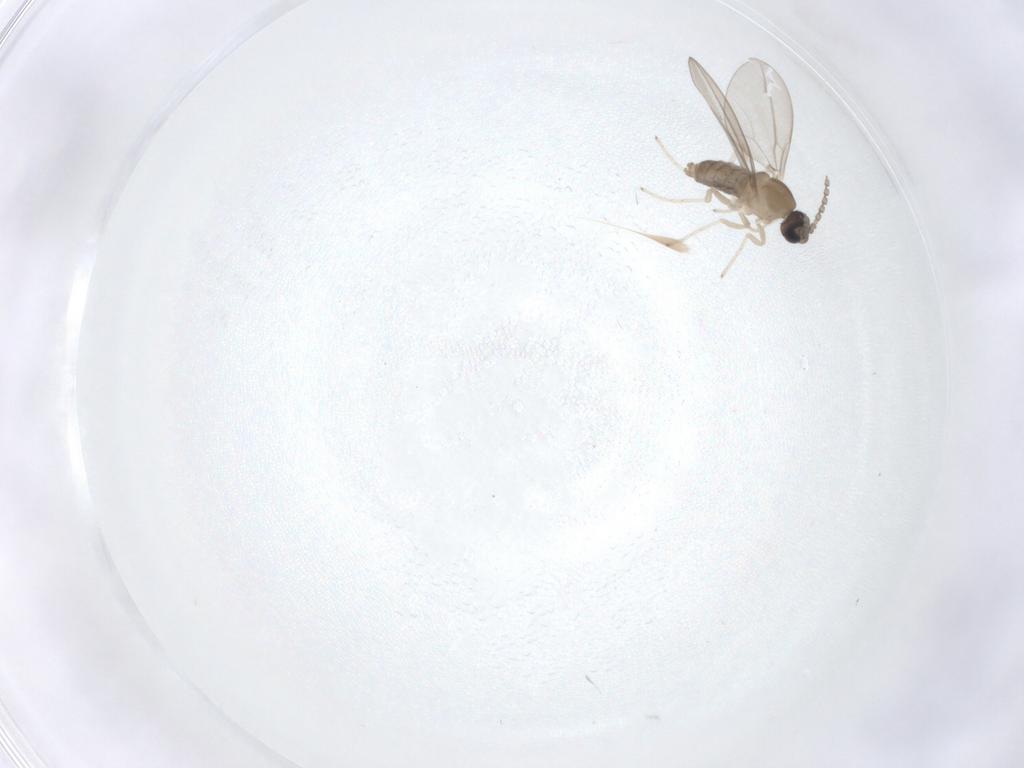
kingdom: Animalia
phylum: Arthropoda
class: Insecta
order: Diptera
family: Cecidomyiidae
